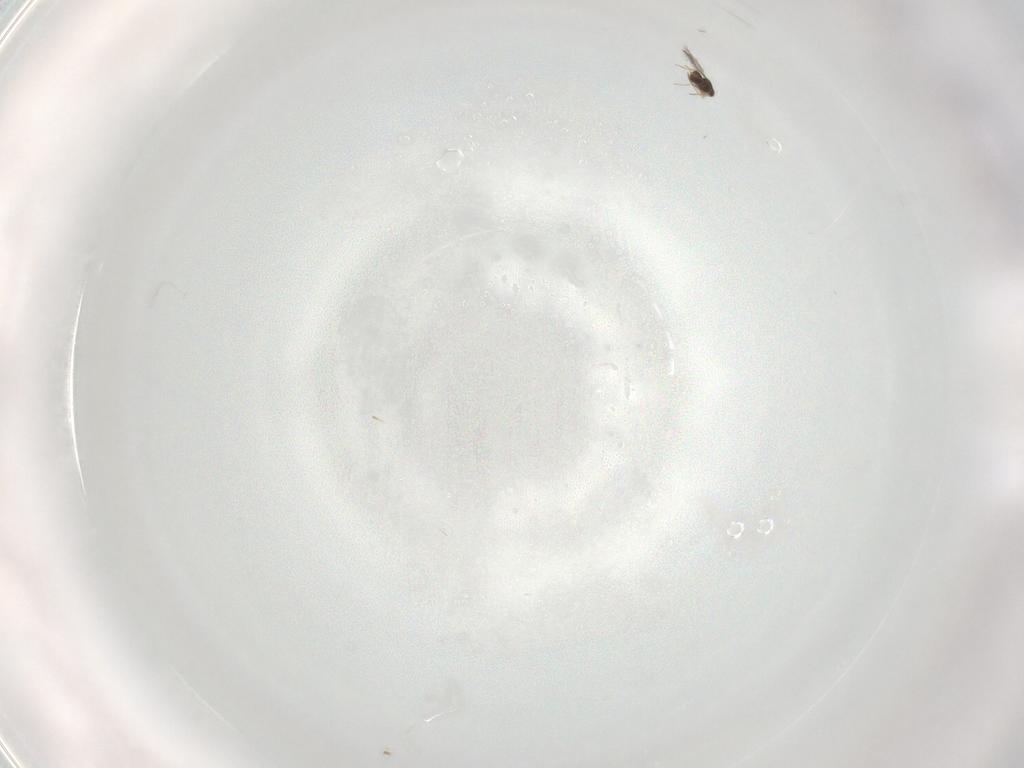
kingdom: Animalia
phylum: Arthropoda
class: Insecta
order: Hymenoptera
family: Mymaridae
